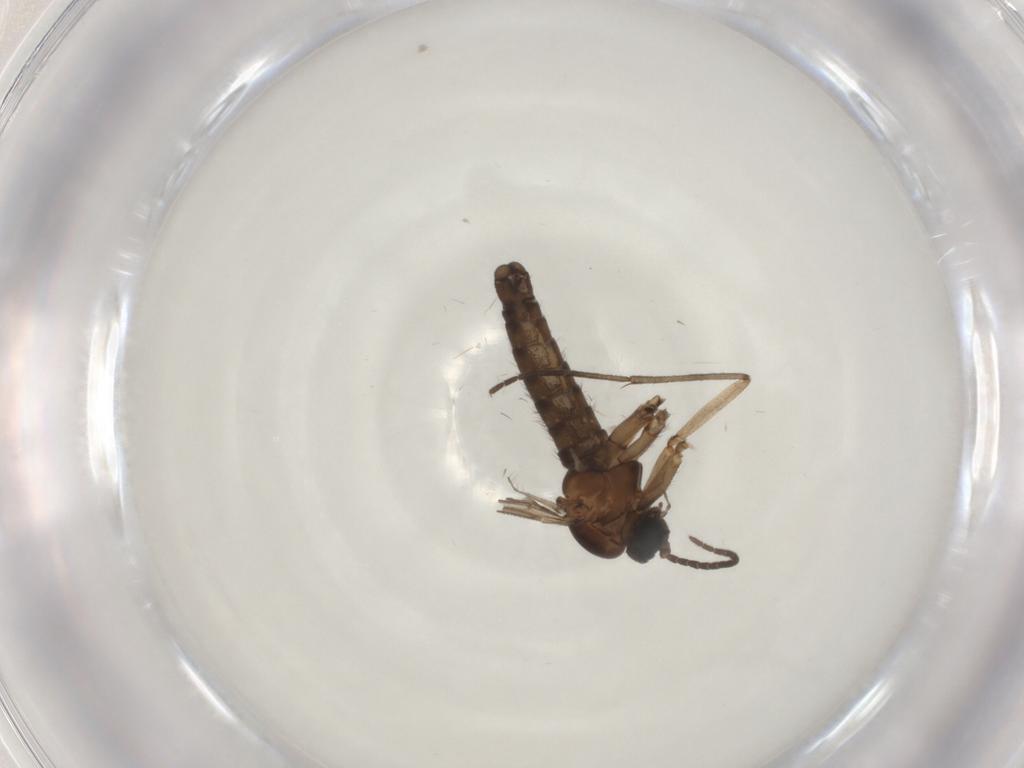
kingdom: Animalia
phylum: Arthropoda
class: Insecta
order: Diptera
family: Sciaridae
